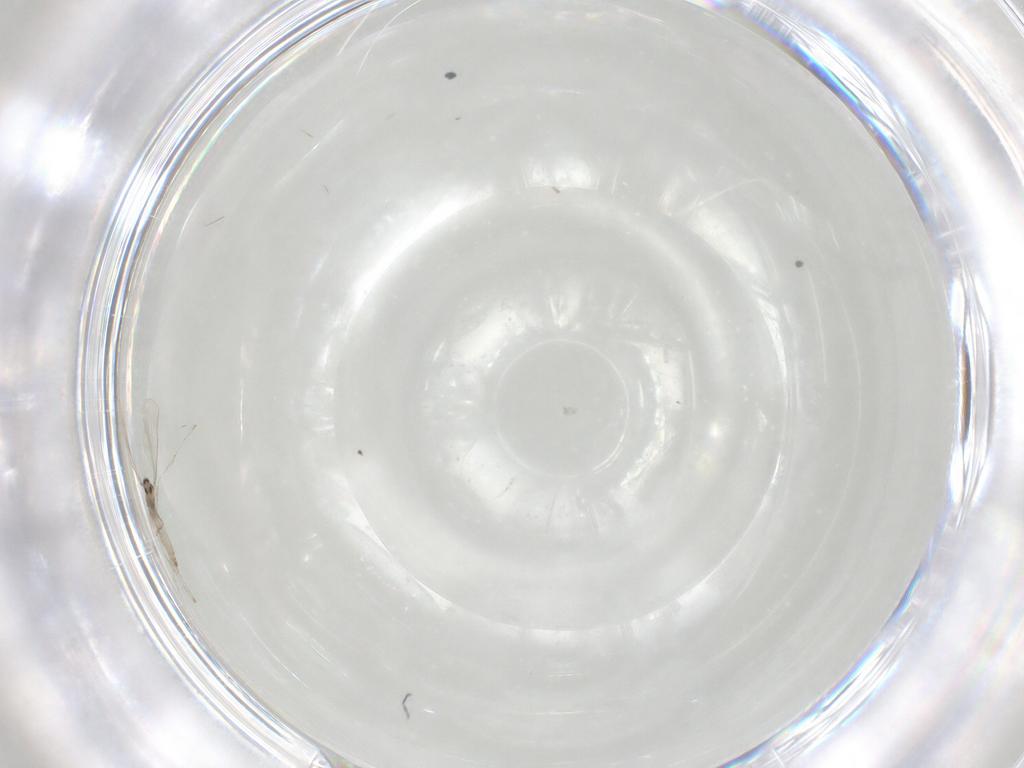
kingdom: Animalia
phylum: Arthropoda
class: Insecta
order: Diptera
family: Cecidomyiidae
